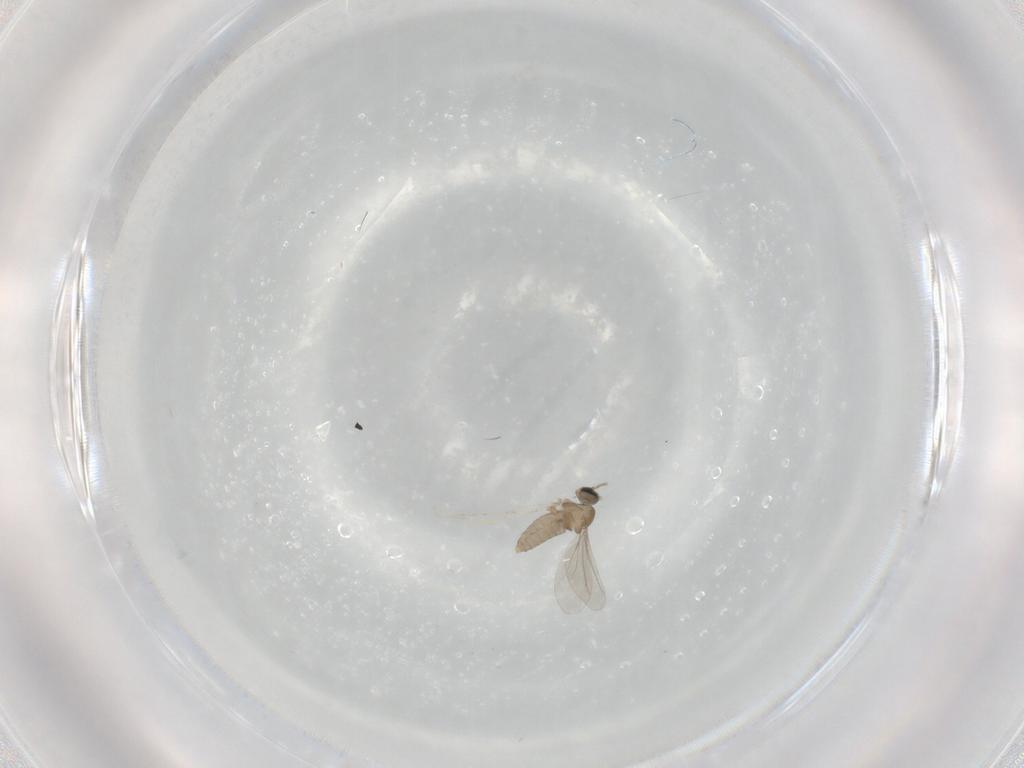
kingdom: Animalia
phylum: Arthropoda
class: Insecta
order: Diptera
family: Cecidomyiidae
